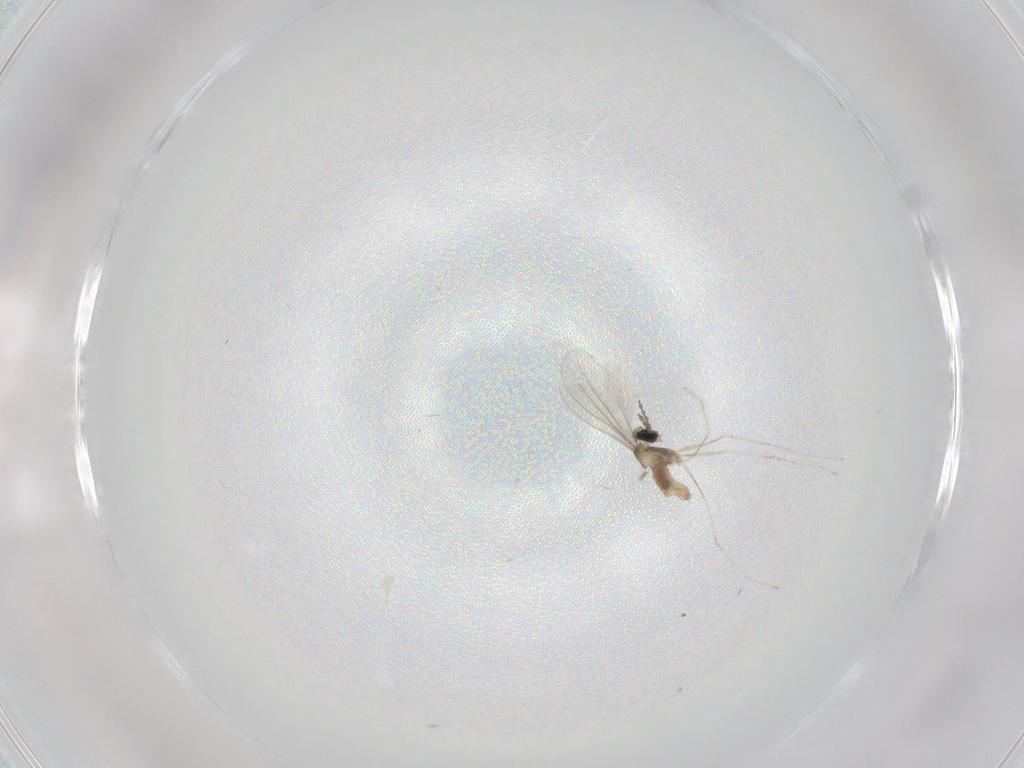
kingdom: Animalia
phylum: Arthropoda
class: Insecta
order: Diptera
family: Cecidomyiidae
